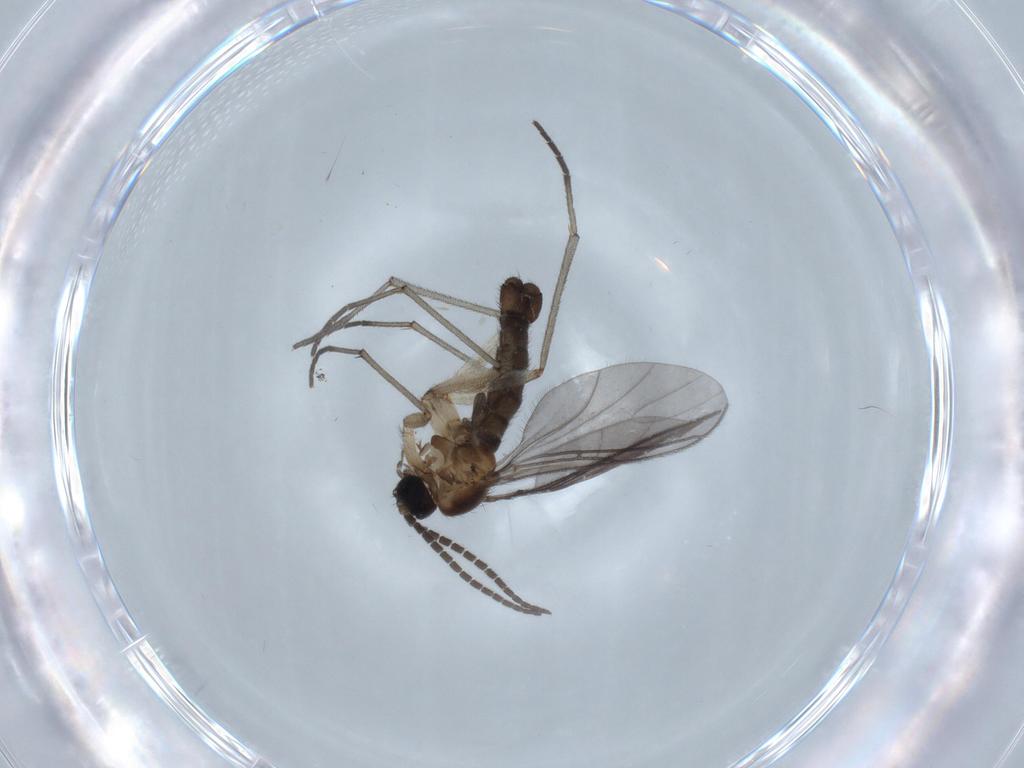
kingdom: Animalia
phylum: Arthropoda
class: Insecta
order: Diptera
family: Sciaridae
